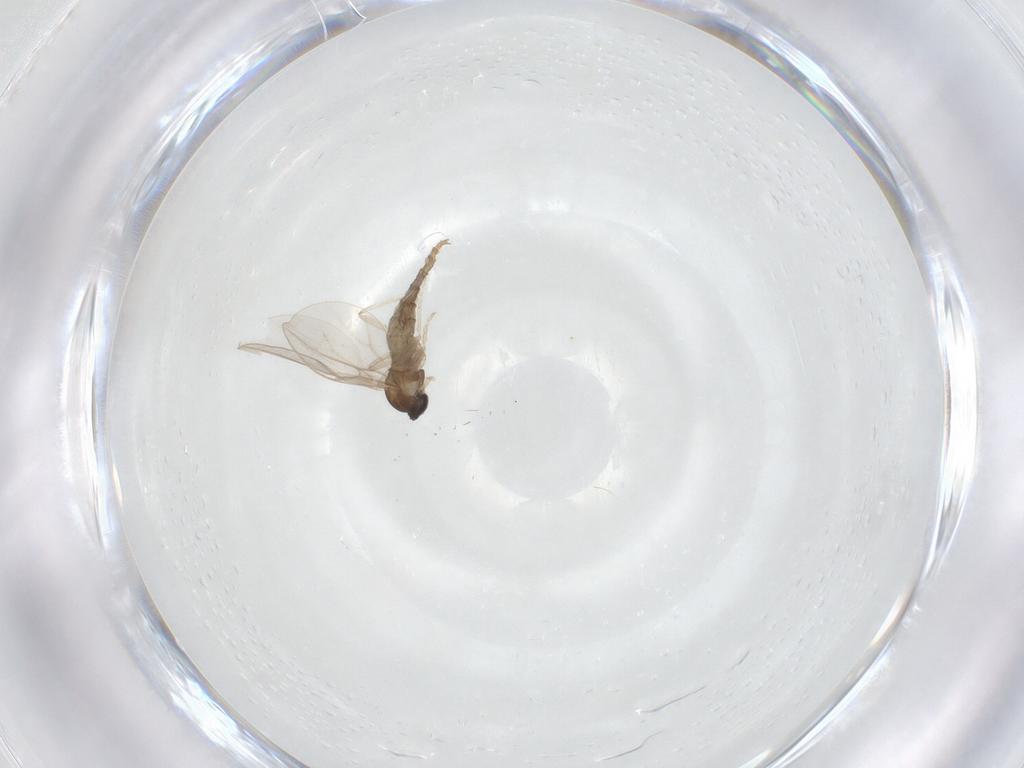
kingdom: Animalia
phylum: Arthropoda
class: Insecta
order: Diptera
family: Cecidomyiidae
